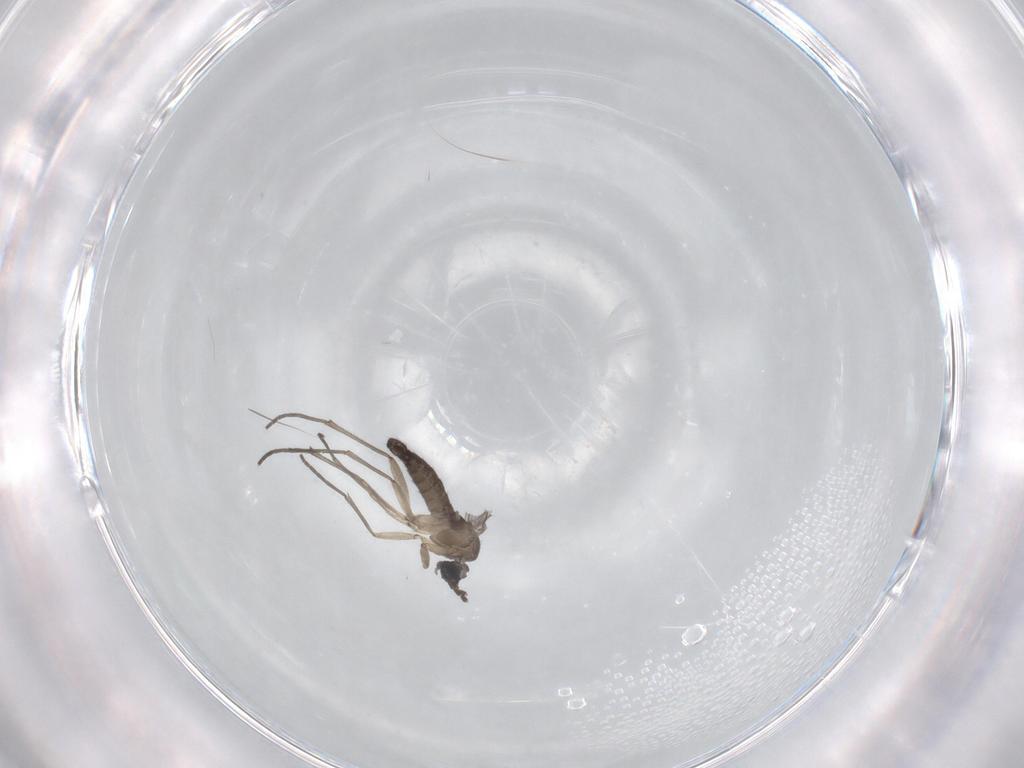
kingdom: Animalia
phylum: Arthropoda
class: Insecta
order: Diptera
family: Sciaridae
